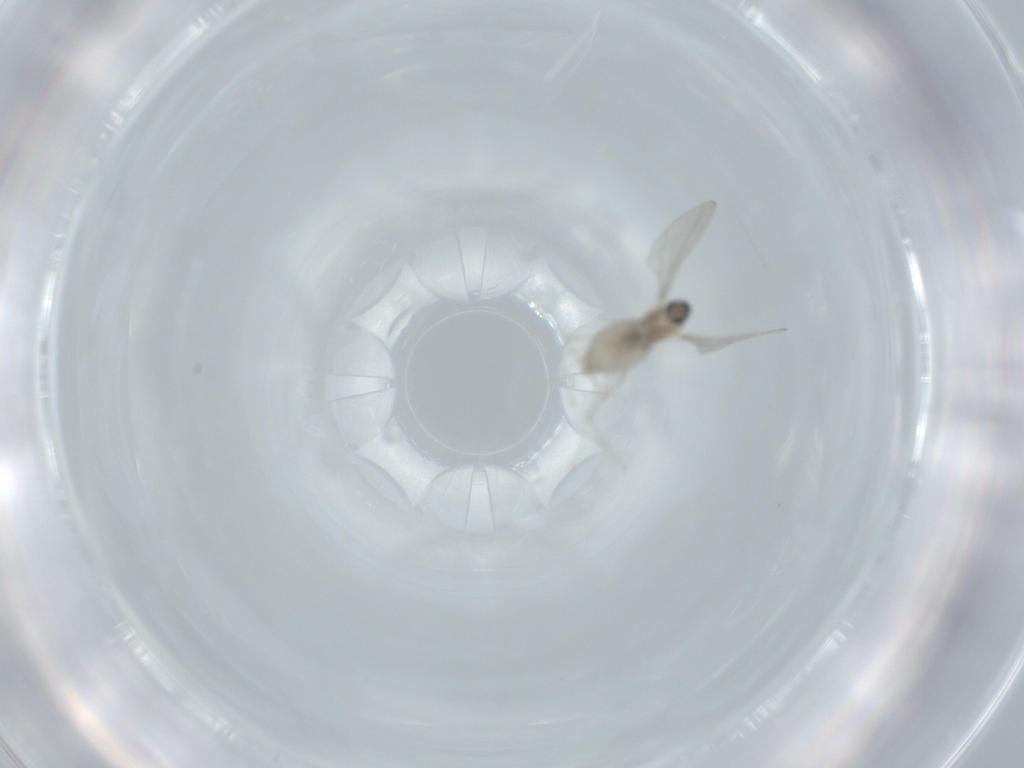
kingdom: Animalia
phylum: Arthropoda
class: Insecta
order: Diptera
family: Cecidomyiidae
